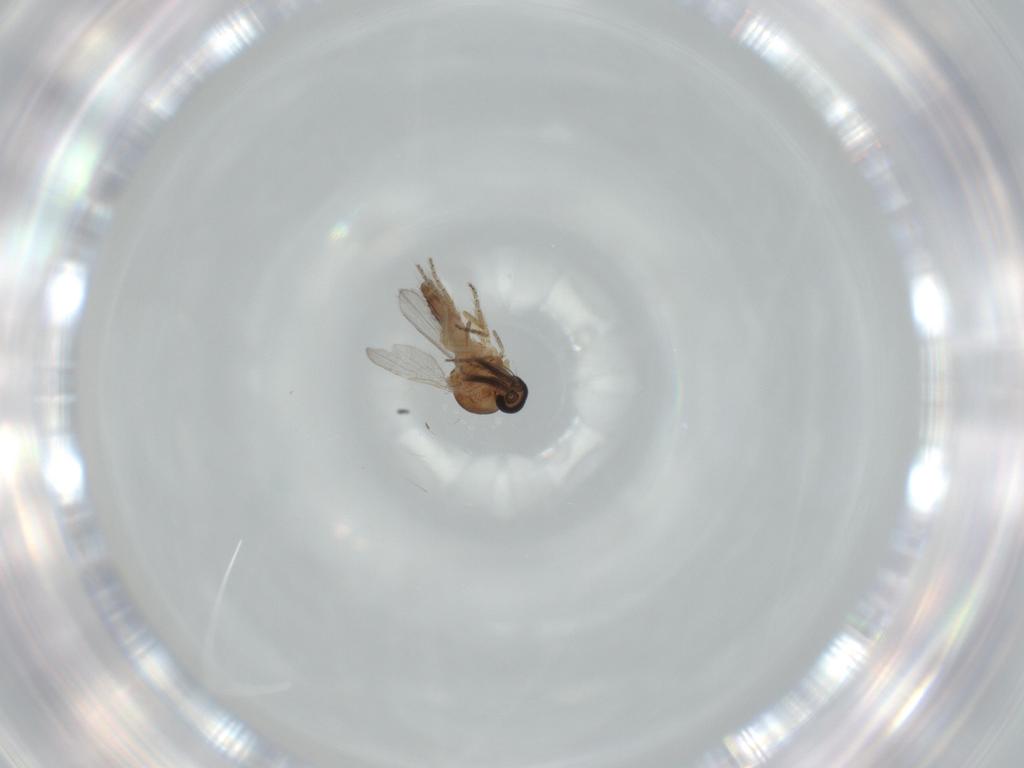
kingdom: Animalia
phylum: Arthropoda
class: Insecta
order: Diptera
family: Ceratopogonidae
